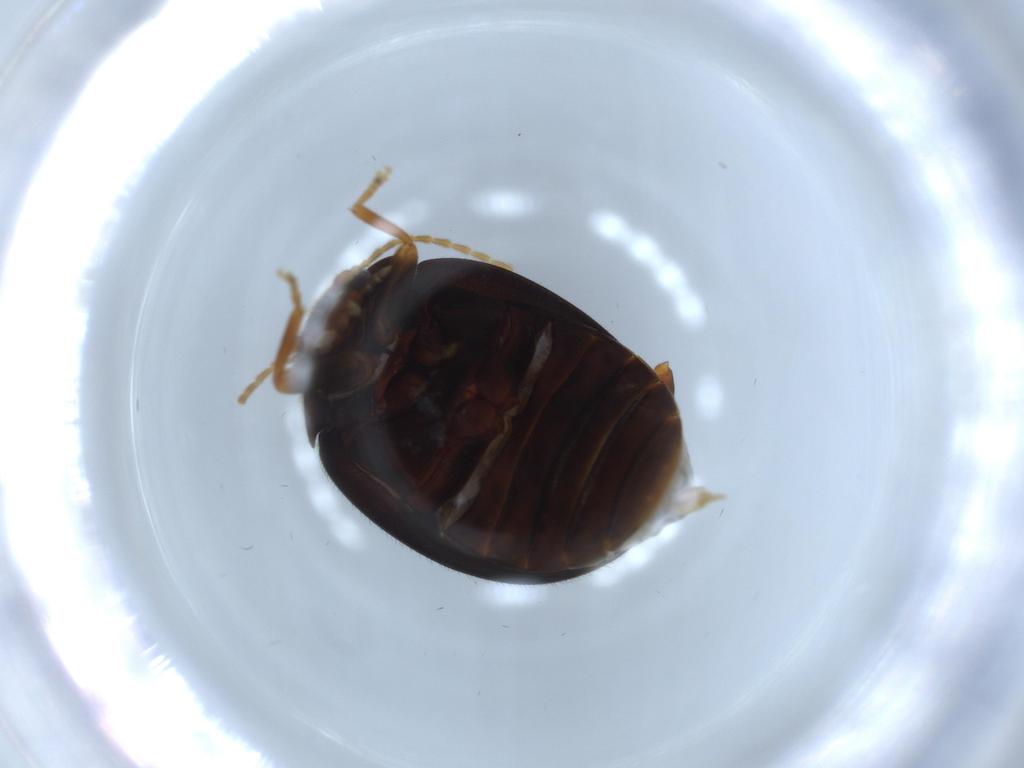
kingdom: Animalia
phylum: Arthropoda
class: Insecta
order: Coleoptera
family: Scirtidae
